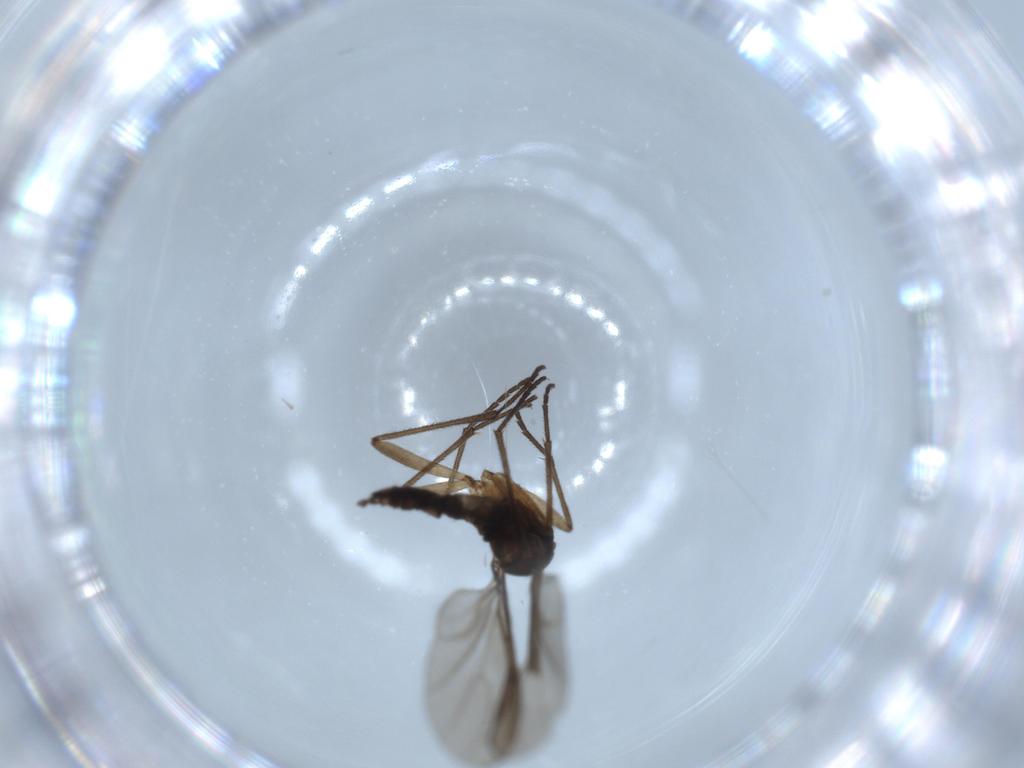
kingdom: Animalia
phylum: Arthropoda
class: Insecta
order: Diptera
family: Sciaridae
